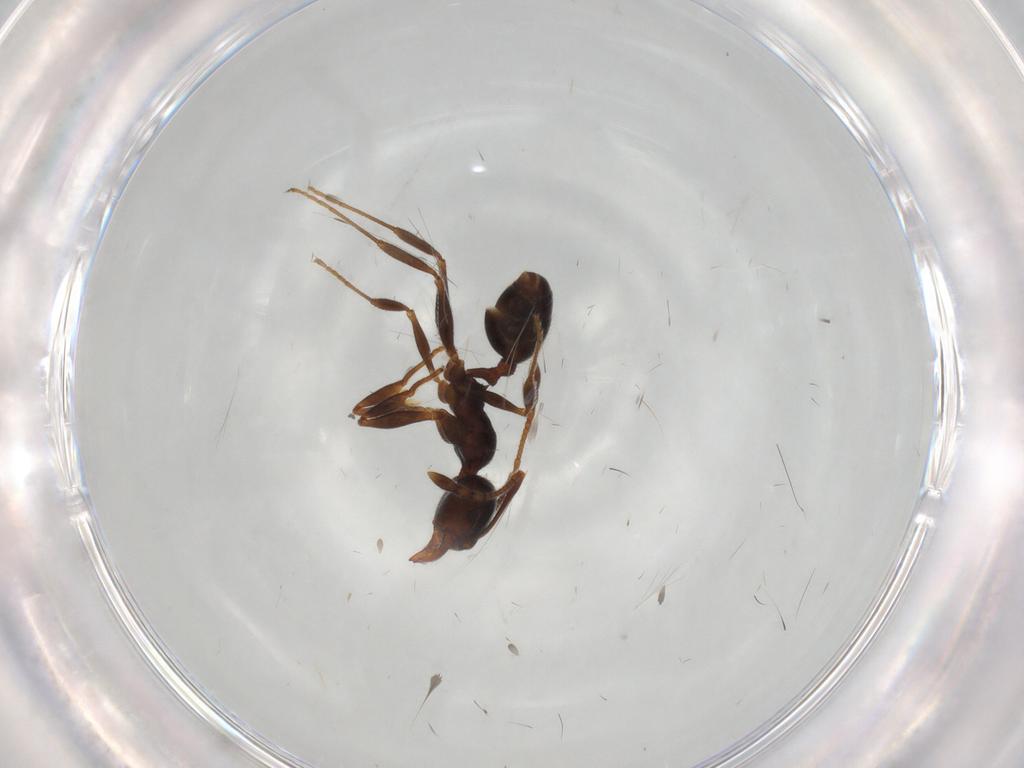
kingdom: Animalia
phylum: Arthropoda
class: Insecta
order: Hymenoptera
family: Formicidae
